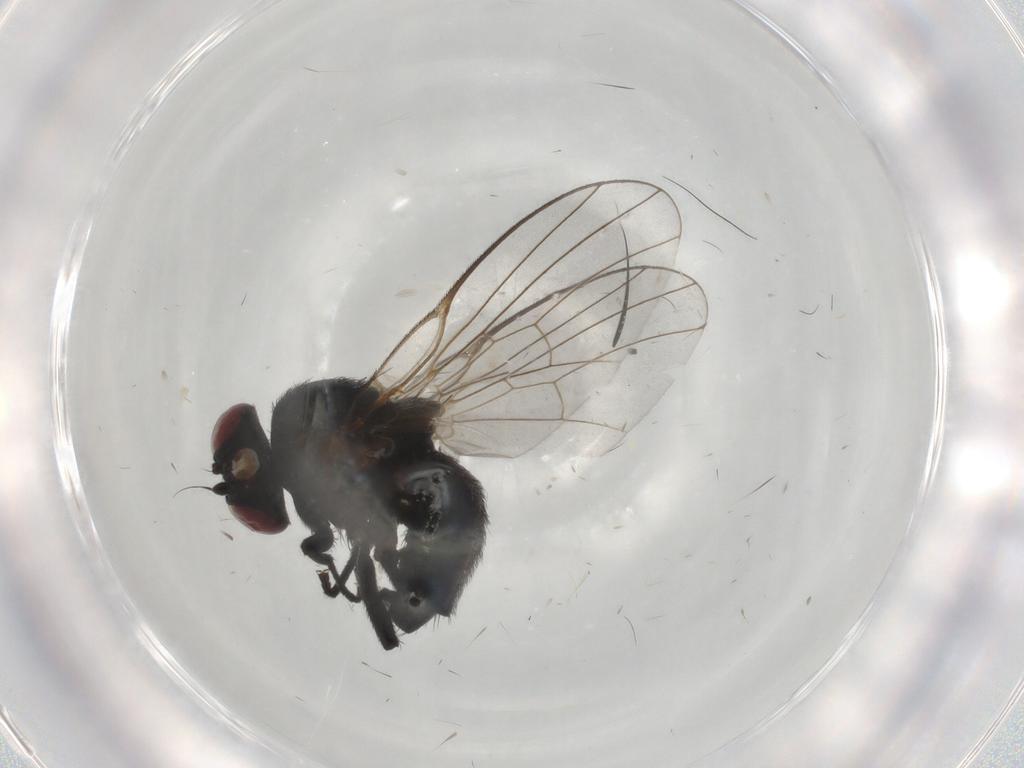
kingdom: Animalia
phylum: Arthropoda
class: Insecta
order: Diptera
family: Agromyzidae
